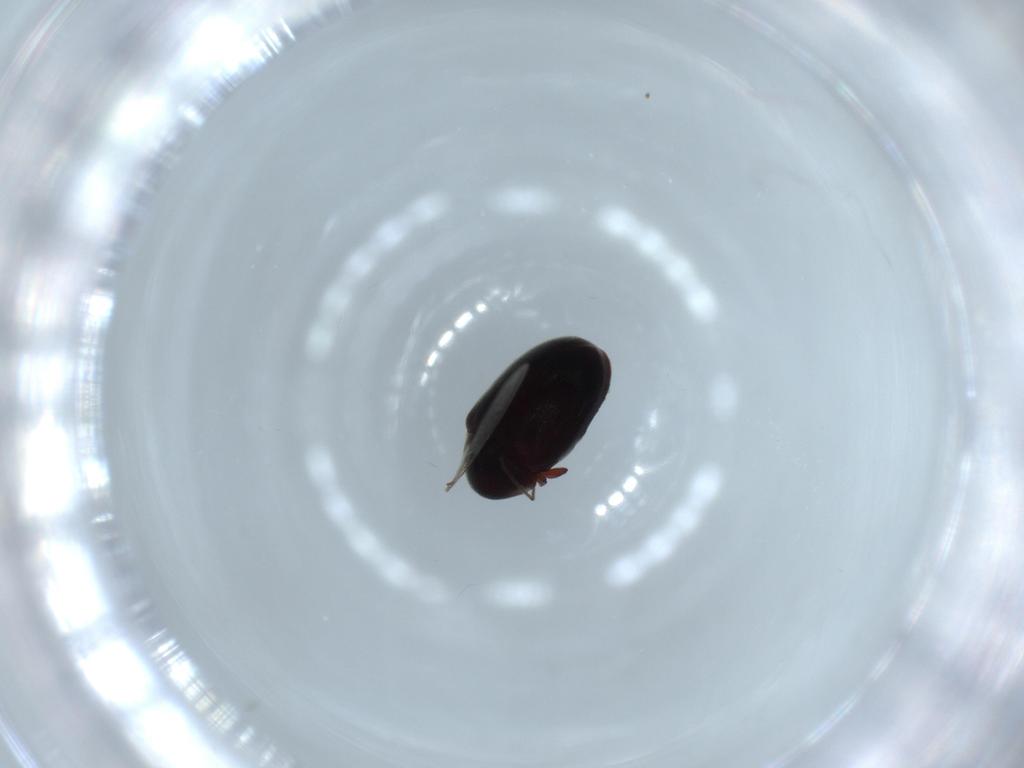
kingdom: Animalia
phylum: Arthropoda
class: Insecta
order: Coleoptera
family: Ptinidae
